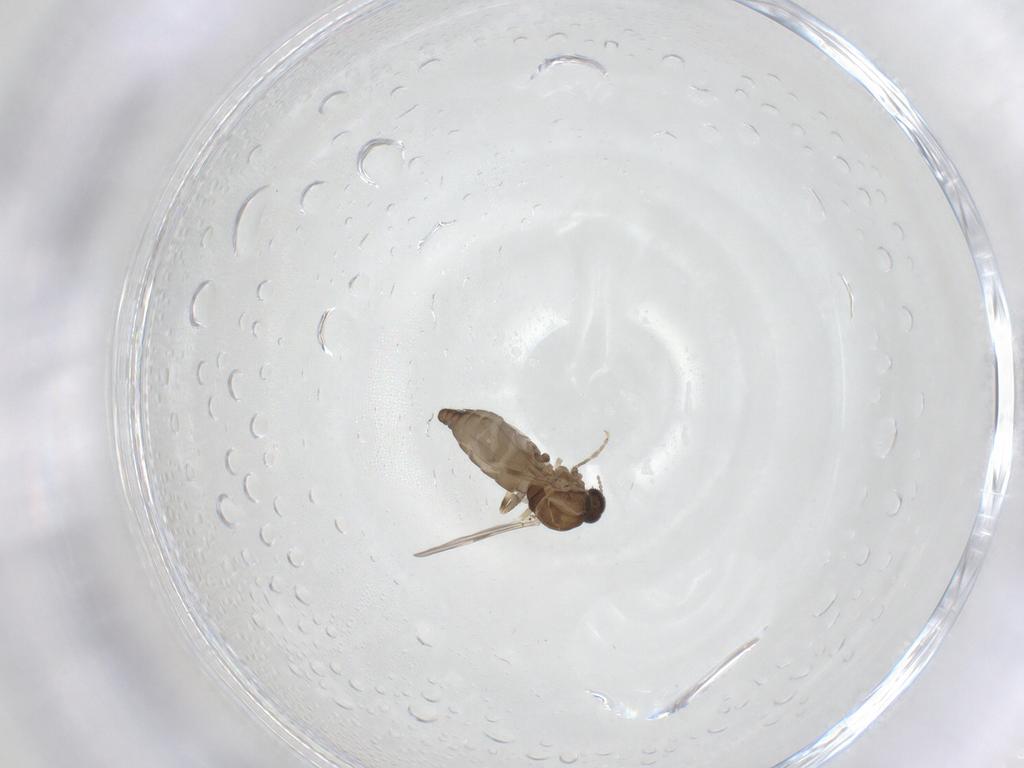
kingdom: Animalia
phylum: Arthropoda
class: Insecta
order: Diptera
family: Ceratopogonidae
